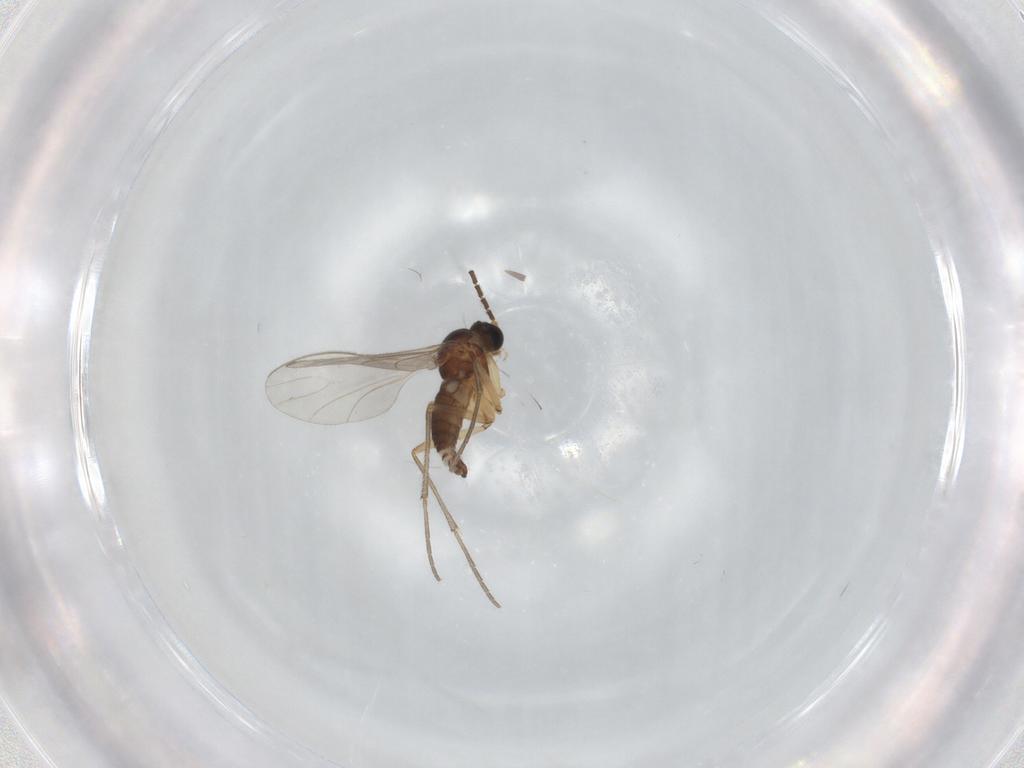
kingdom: Animalia
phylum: Arthropoda
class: Insecta
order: Diptera
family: Sciaridae
